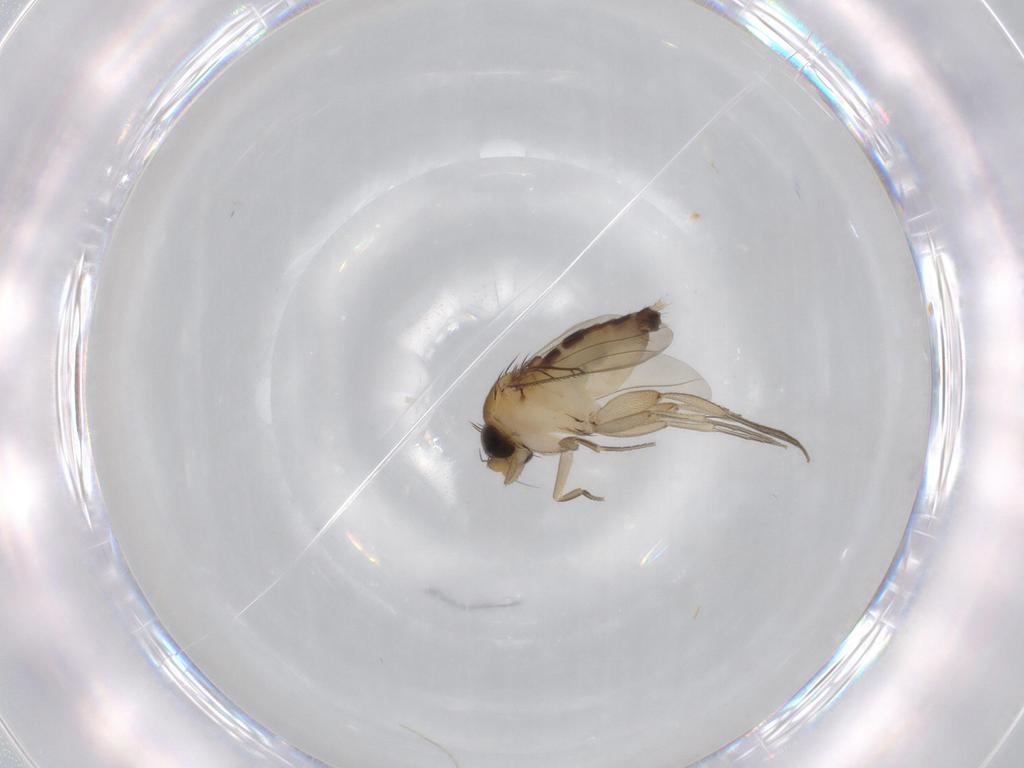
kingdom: Animalia
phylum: Arthropoda
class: Insecta
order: Diptera
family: Phoridae
